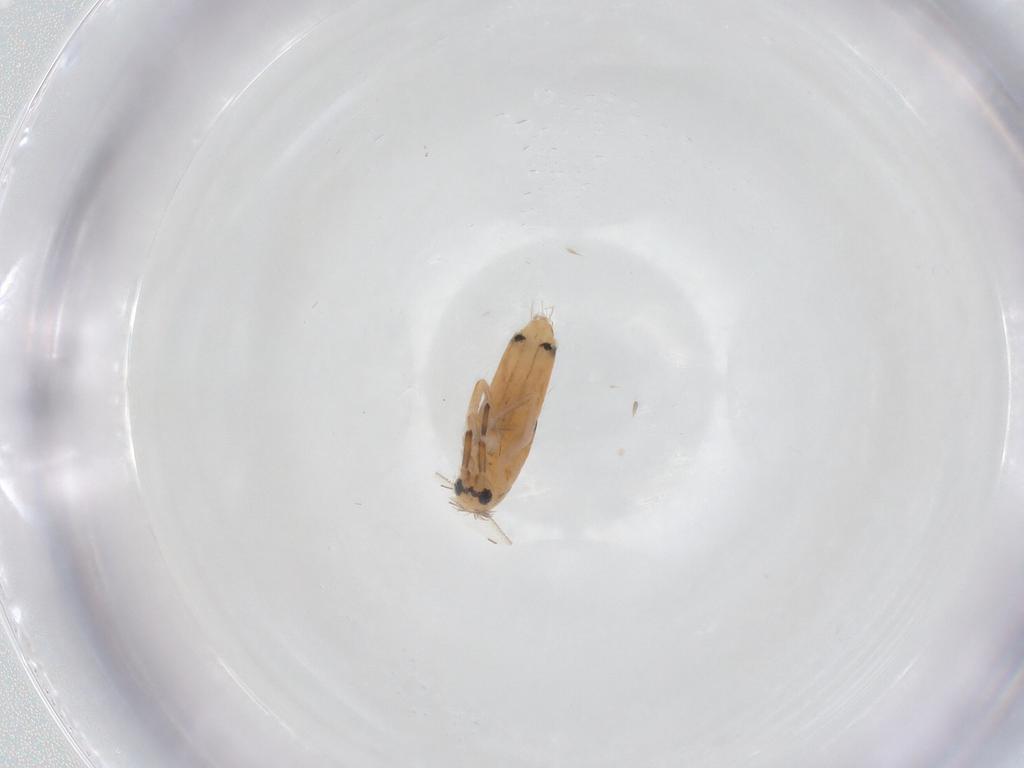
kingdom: Animalia
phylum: Arthropoda
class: Collembola
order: Entomobryomorpha
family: Entomobryidae
